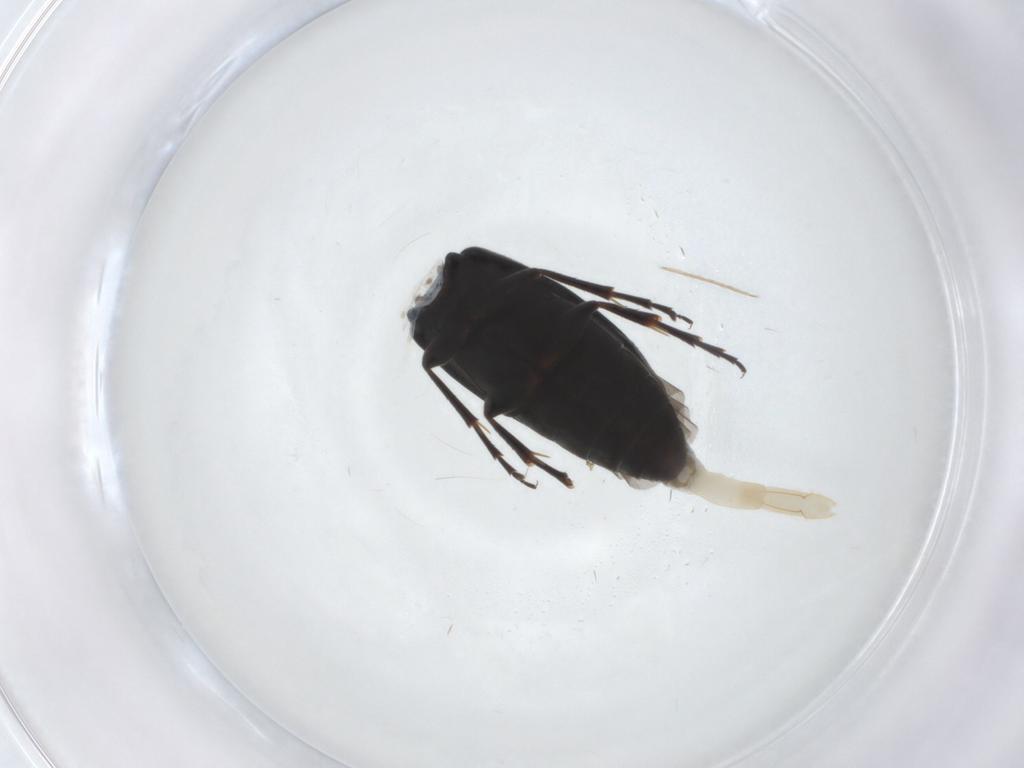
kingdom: Animalia
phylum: Arthropoda
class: Insecta
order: Coleoptera
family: Scraptiidae
